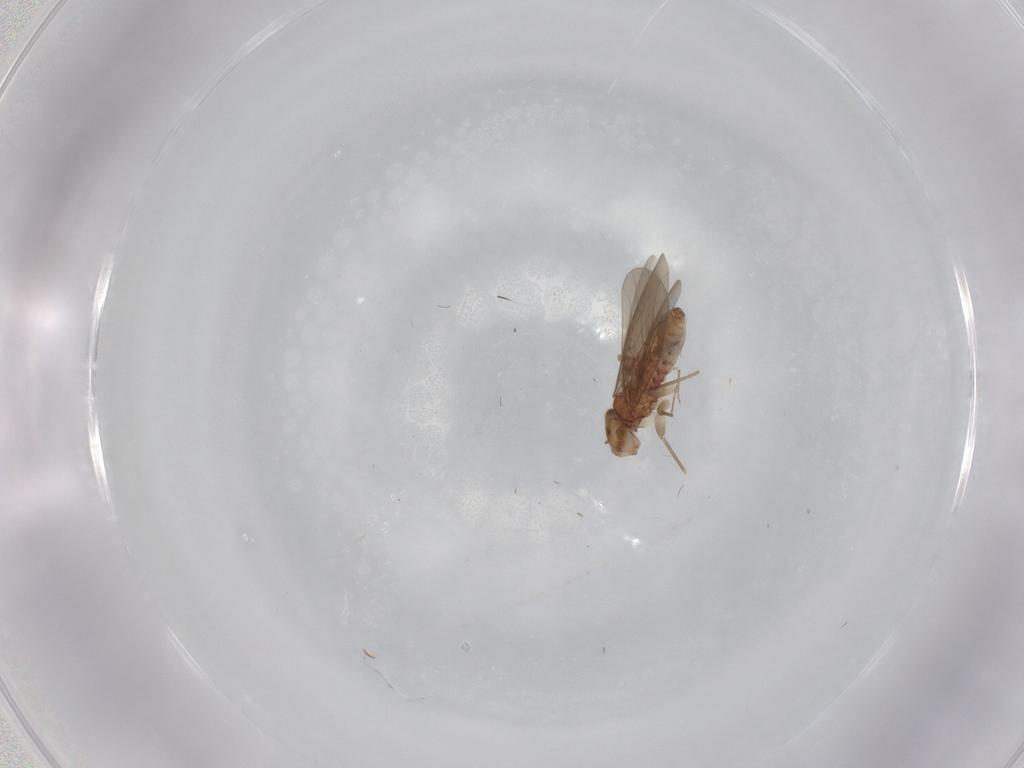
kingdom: Animalia
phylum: Arthropoda
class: Insecta
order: Psocodea
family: Lepidopsocidae
